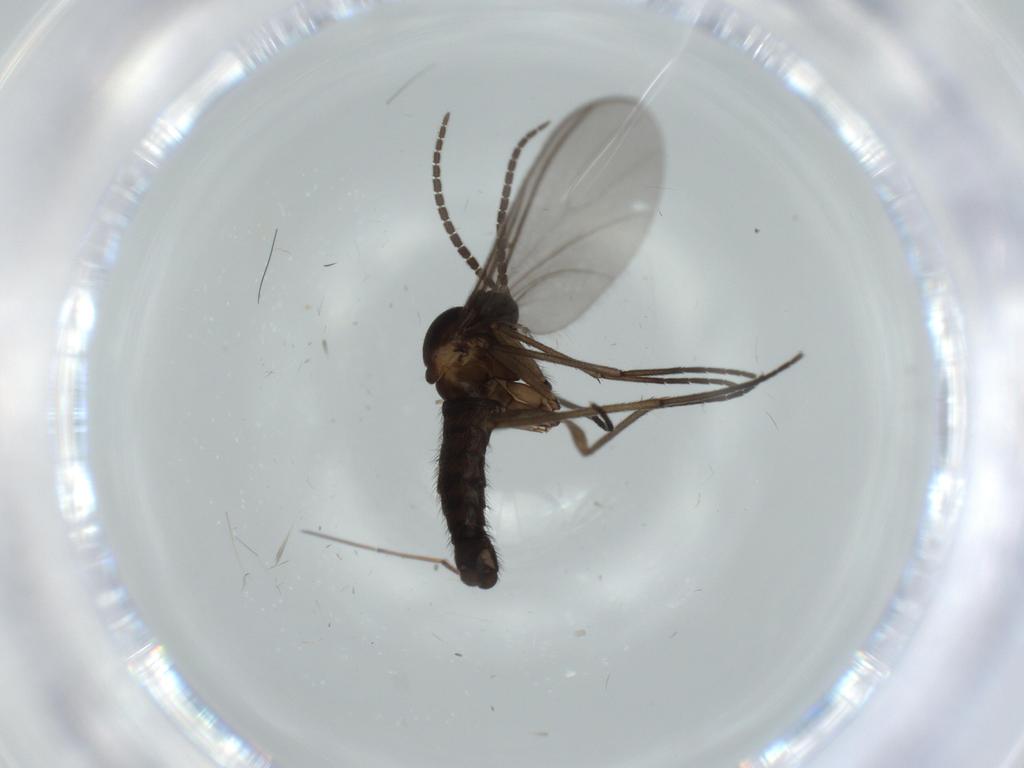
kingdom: Animalia
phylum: Arthropoda
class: Insecta
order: Diptera
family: Sciaridae
